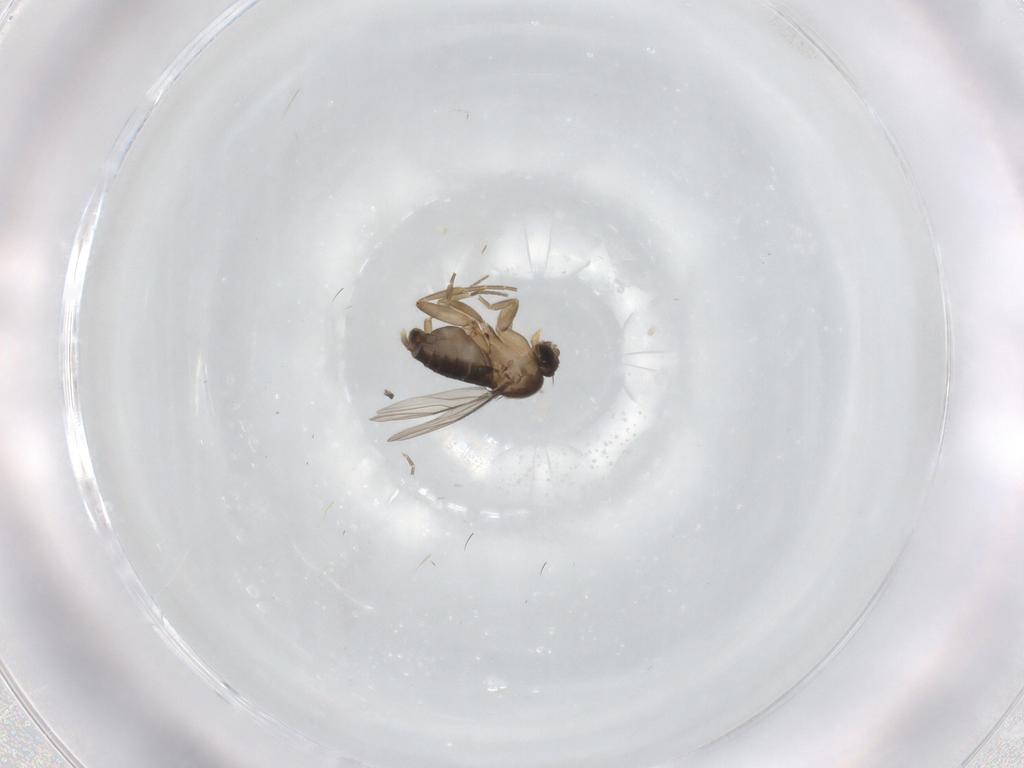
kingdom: Animalia
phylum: Arthropoda
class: Insecta
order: Diptera
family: Phoridae
